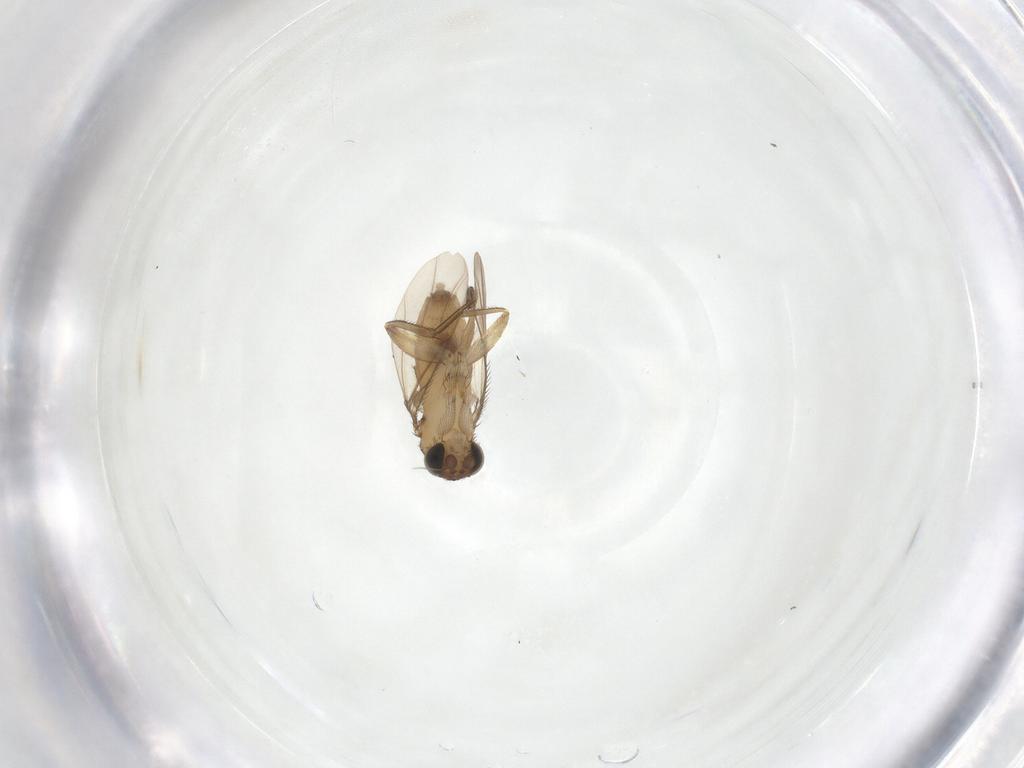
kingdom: Animalia
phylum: Arthropoda
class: Insecta
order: Diptera
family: Phoridae
